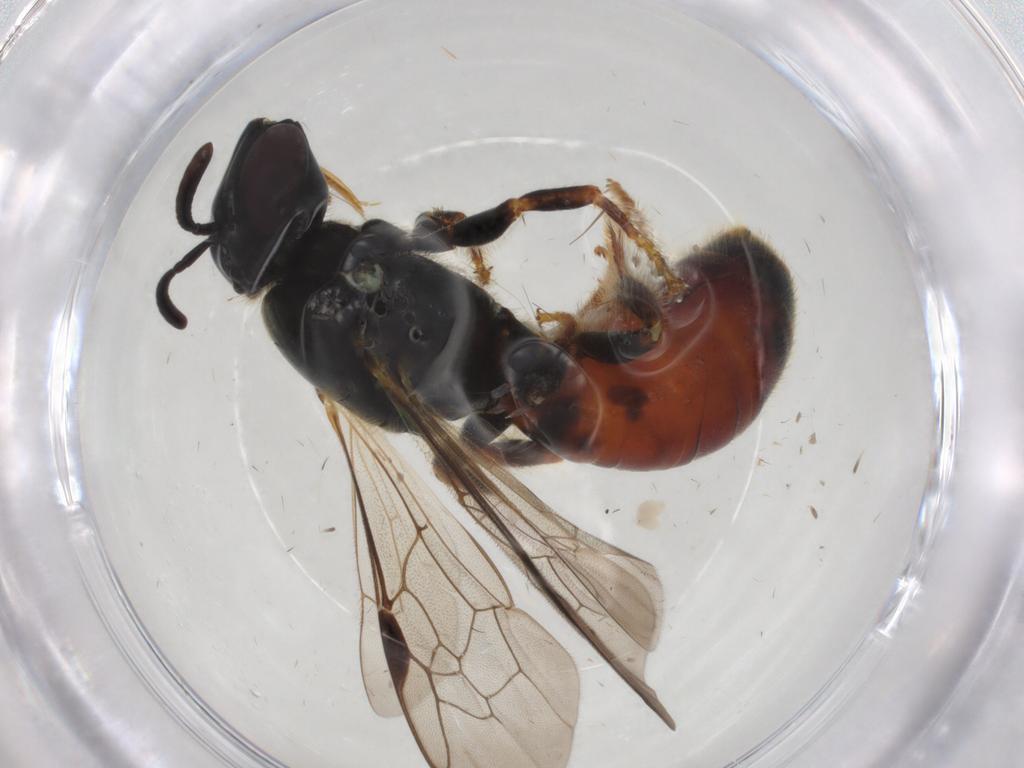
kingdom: Animalia
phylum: Arthropoda
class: Insecta
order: Hymenoptera
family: Apidae
